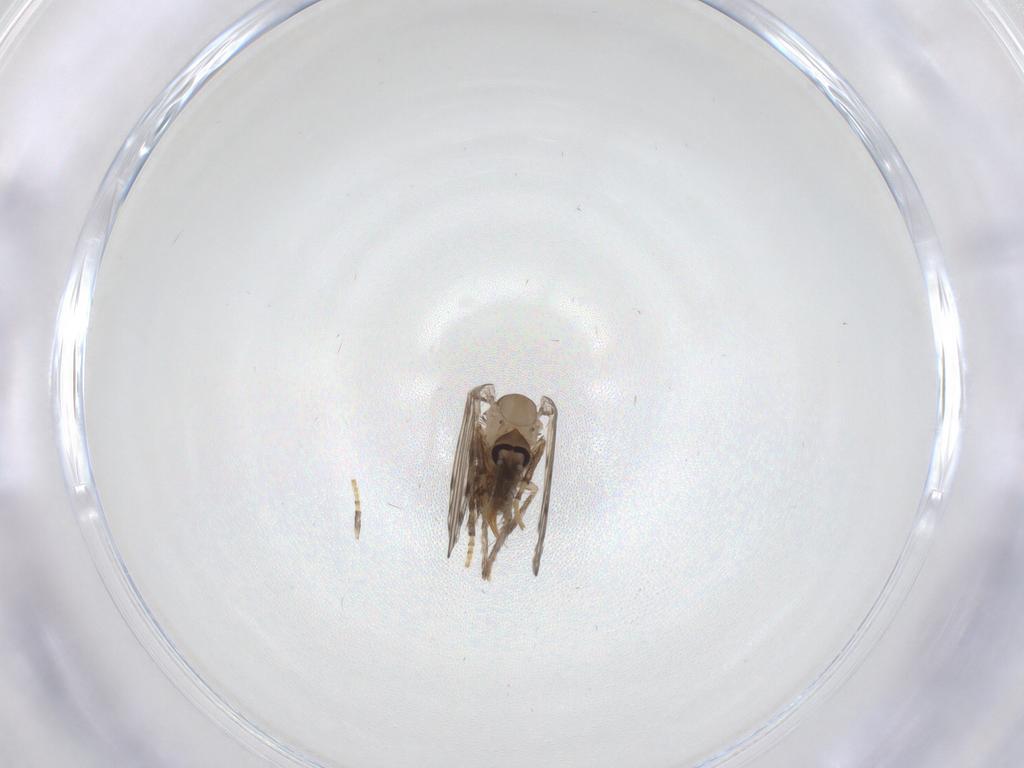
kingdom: Animalia
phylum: Arthropoda
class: Insecta
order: Diptera
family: Psychodidae
